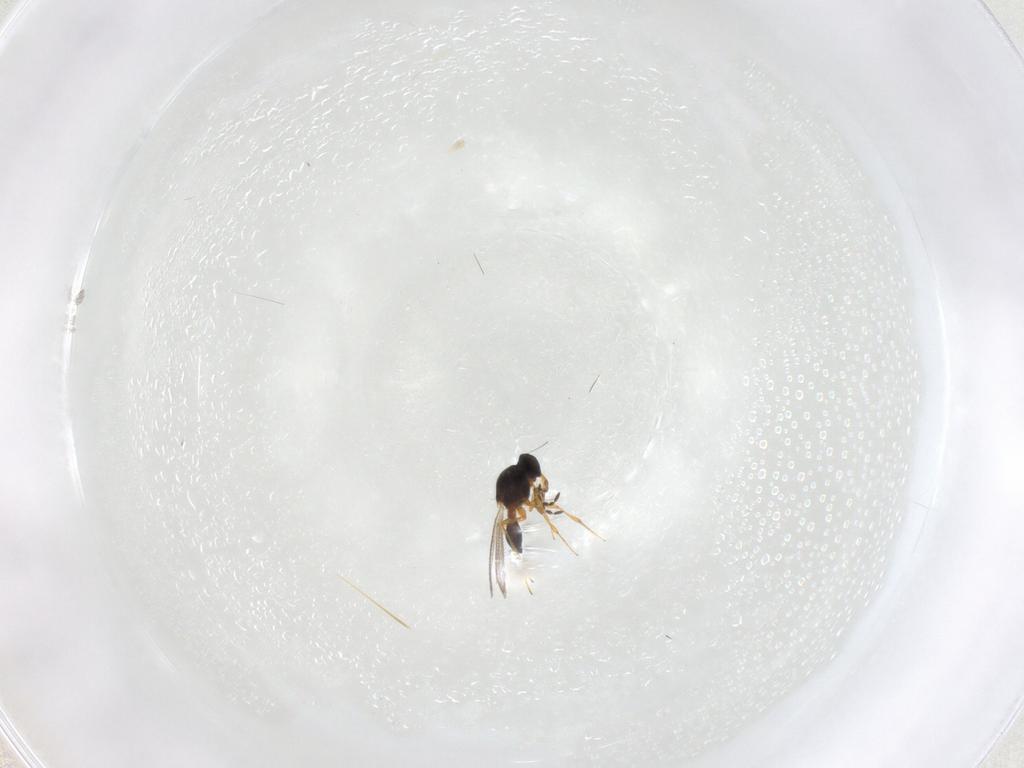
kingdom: Animalia
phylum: Arthropoda
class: Insecta
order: Hymenoptera
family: Platygastridae
